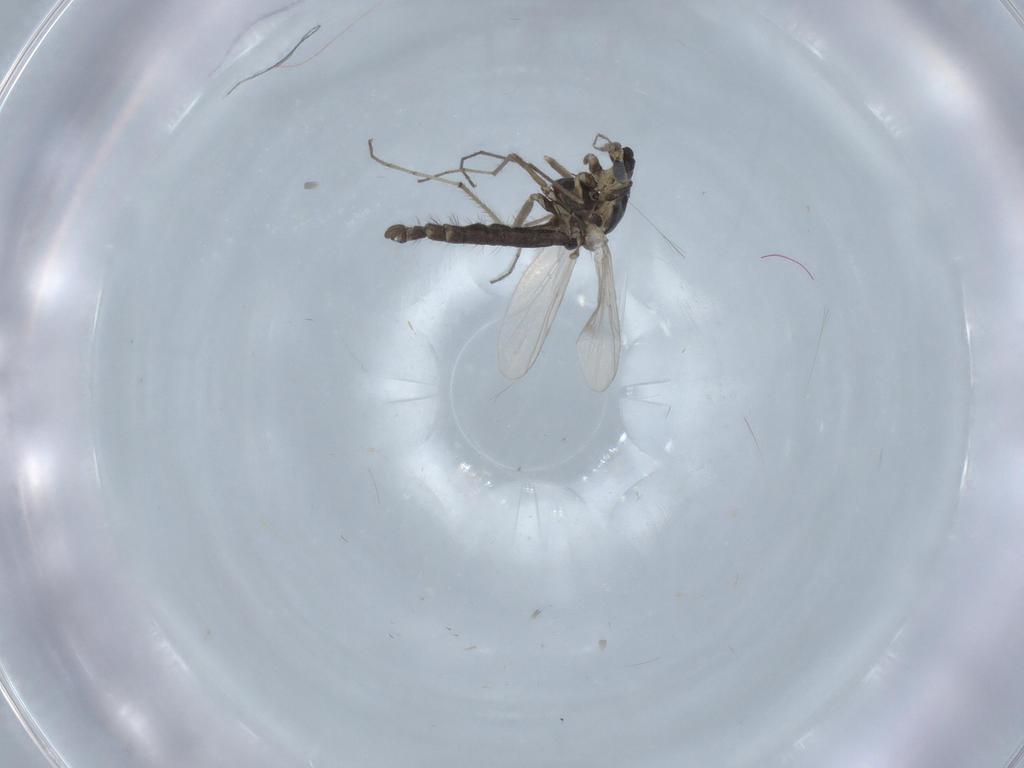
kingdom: Animalia
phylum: Arthropoda
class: Insecta
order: Diptera
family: Chironomidae
